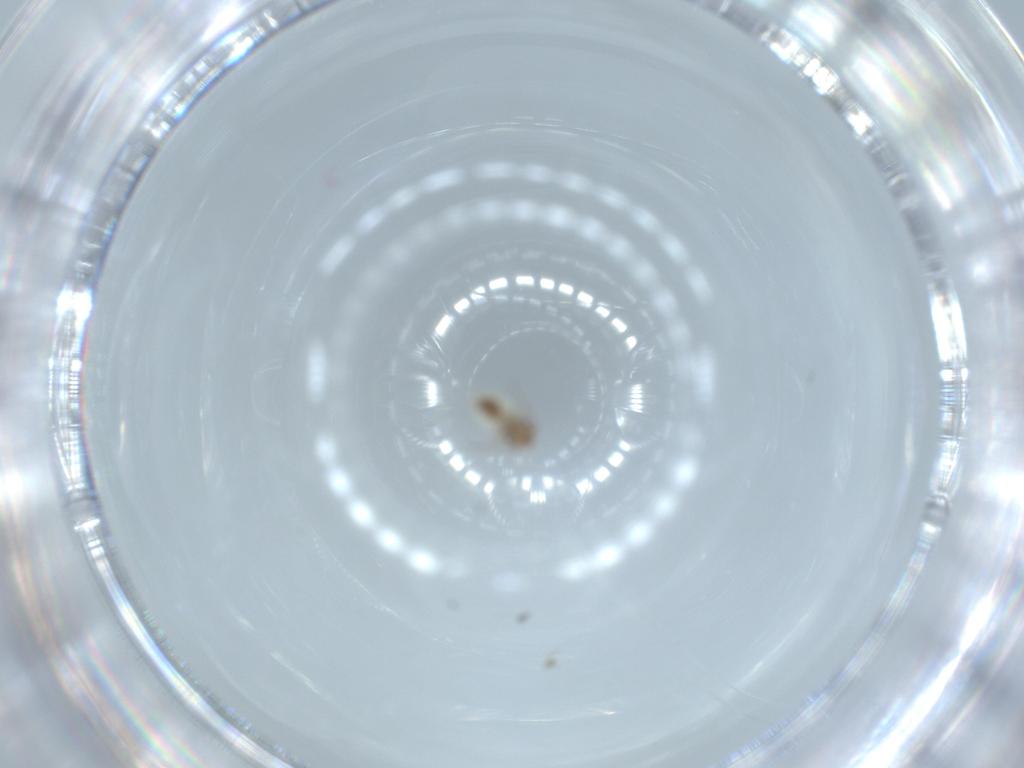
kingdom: Animalia
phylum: Arthropoda
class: Insecta
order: Psocodea
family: Lepidopsocidae
